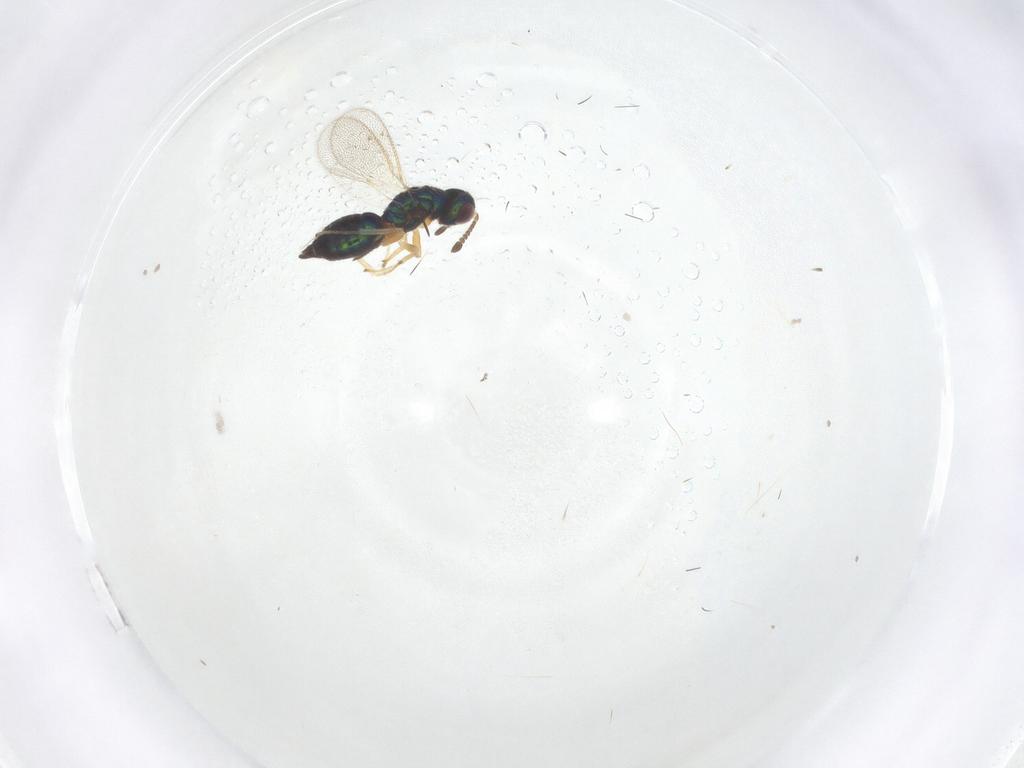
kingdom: Animalia
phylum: Arthropoda
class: Insecta
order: Hymenoptera
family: Tetracampidae
